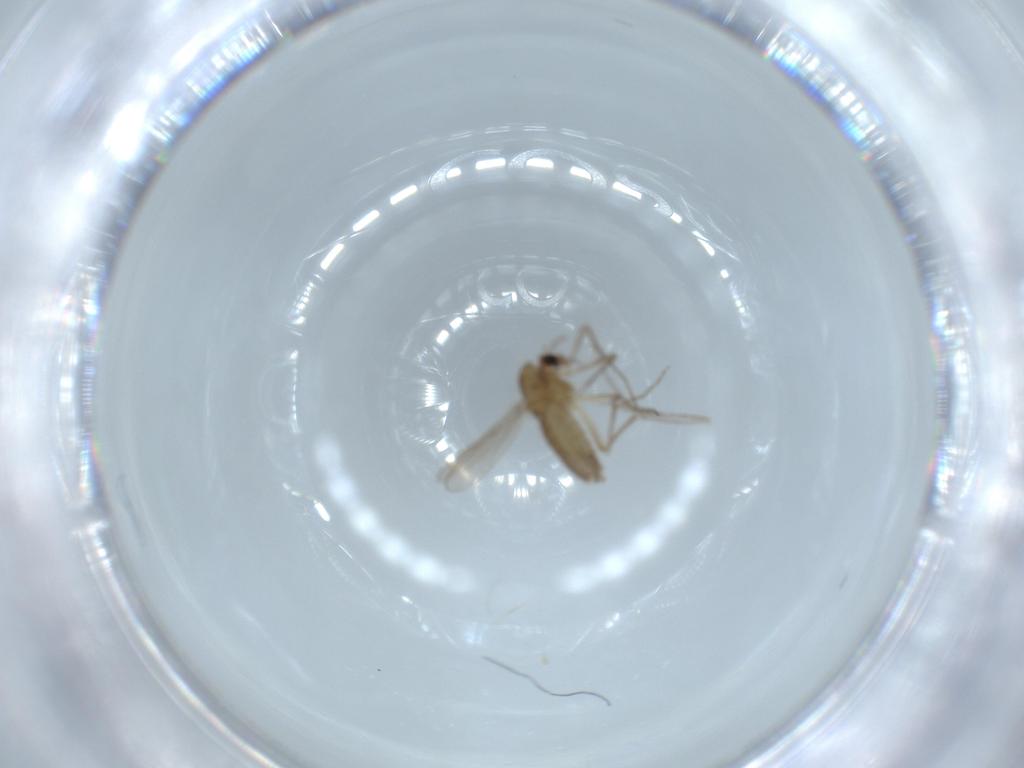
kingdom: Animalia
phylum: Arthropoda
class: Insecta
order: Diptera
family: Chironomidae
